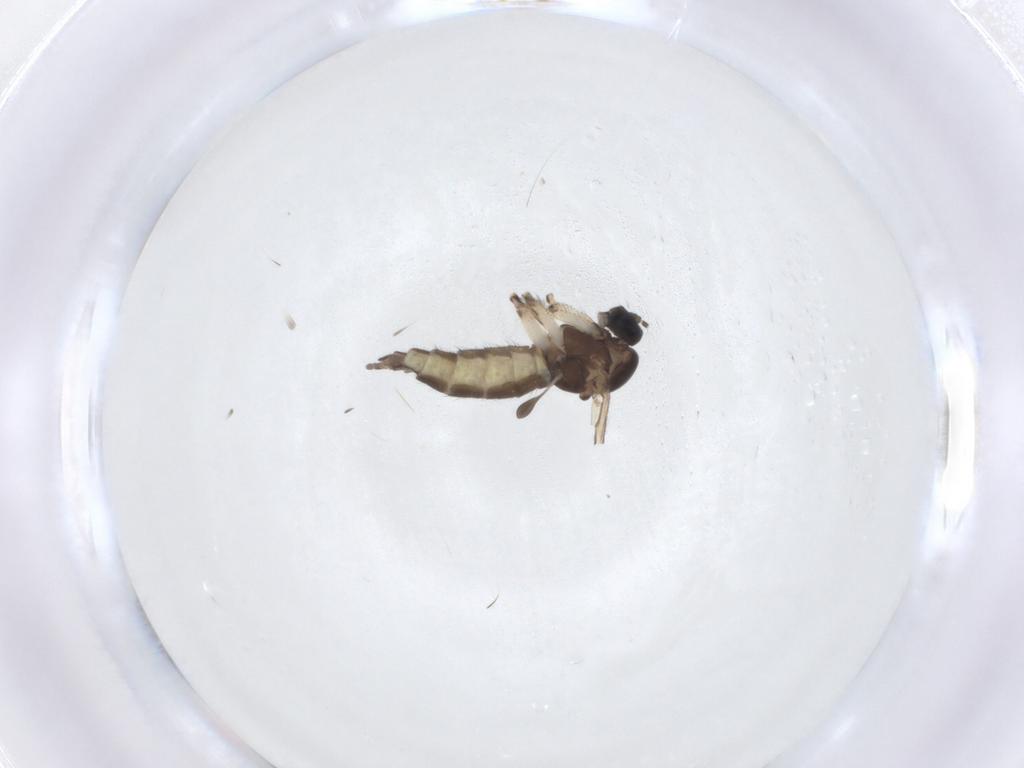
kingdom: Animalia
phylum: Arthropoda
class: Insecta
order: Diptera
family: Sciaridae
